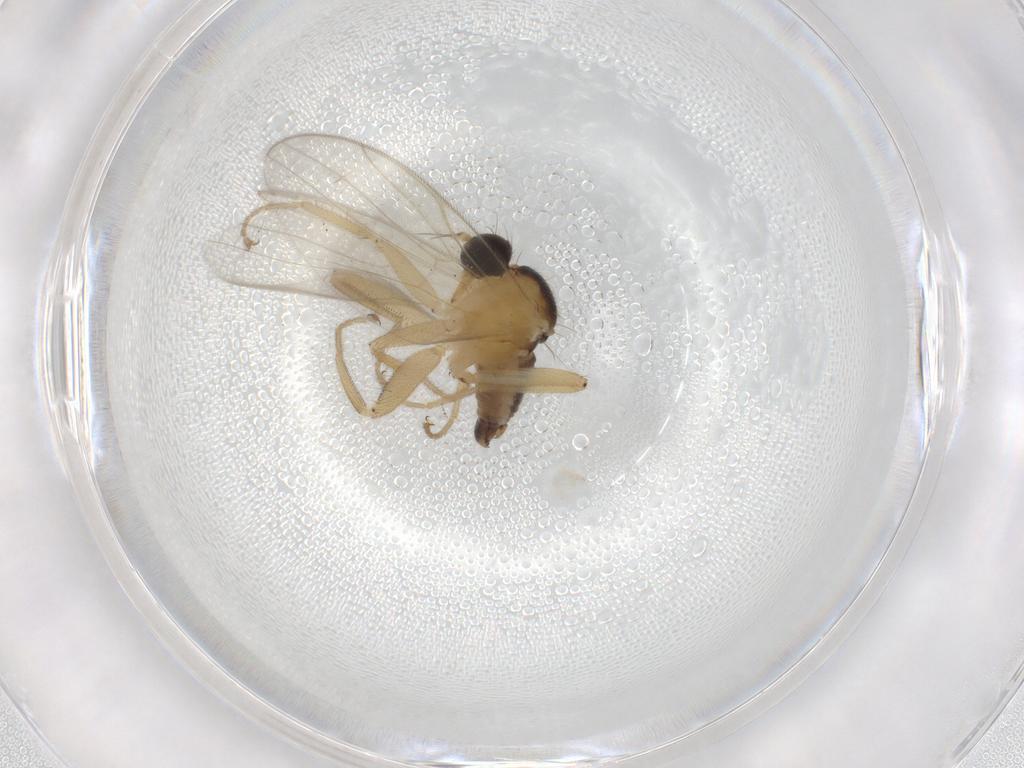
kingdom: Animalia
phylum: Arthropoda
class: Insecta
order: Diptera
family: Hybotidae
